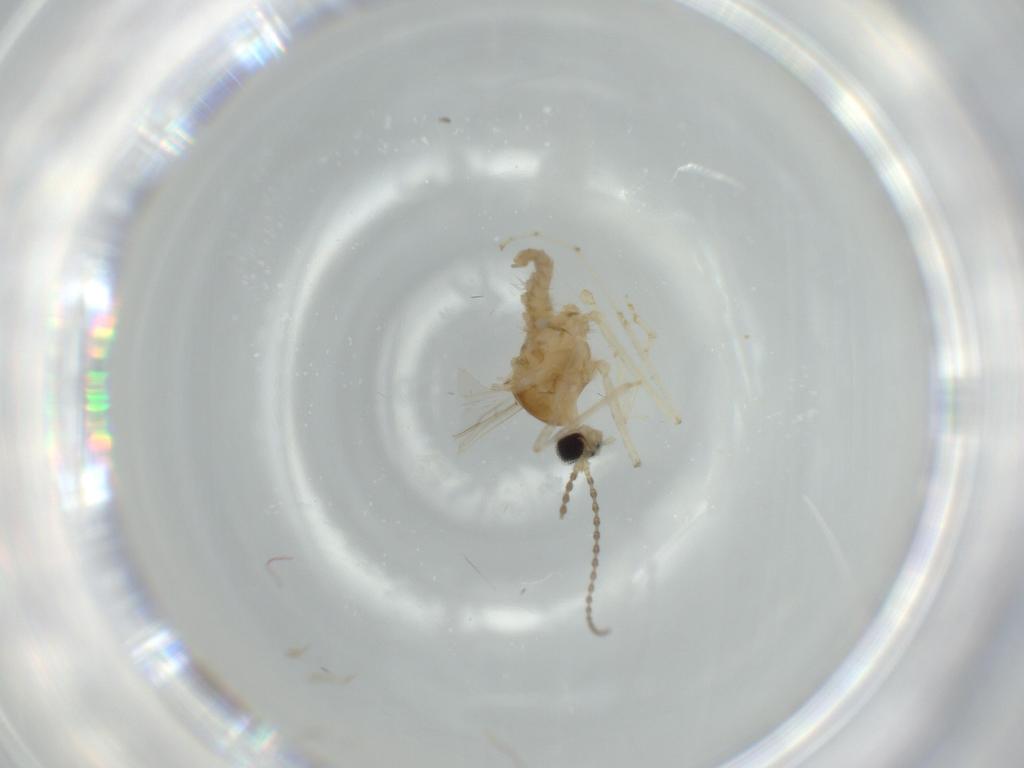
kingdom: Animalia
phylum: Arthropoda
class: Insecta
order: Diptera
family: Cecidomyiidae
